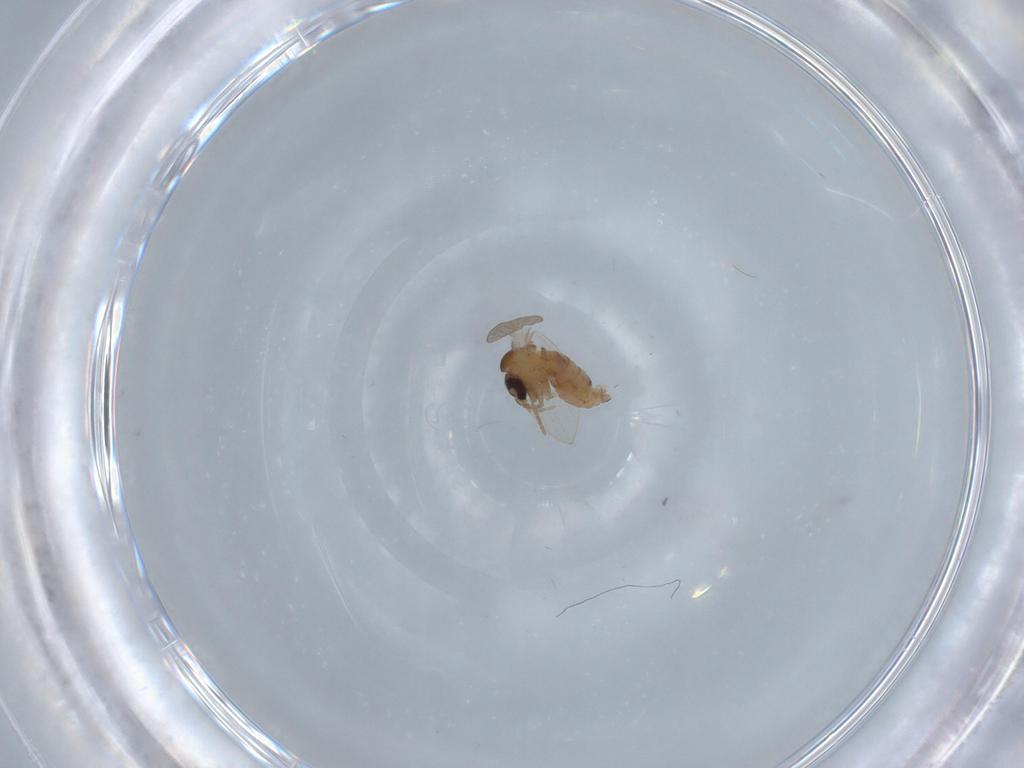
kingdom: Animalia
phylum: Arthropoda
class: Insecta
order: Diptera
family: Psychodidae
